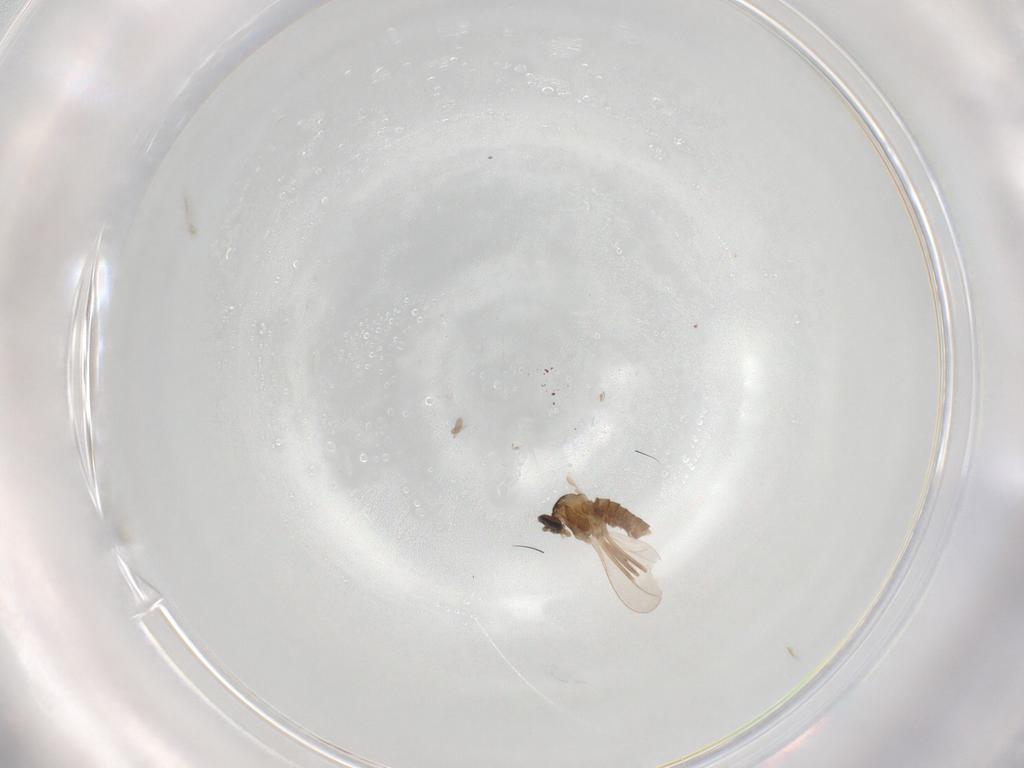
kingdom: Animalia
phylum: Arthropoda
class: Insecta
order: Diptera
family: Cecidomyiidae
